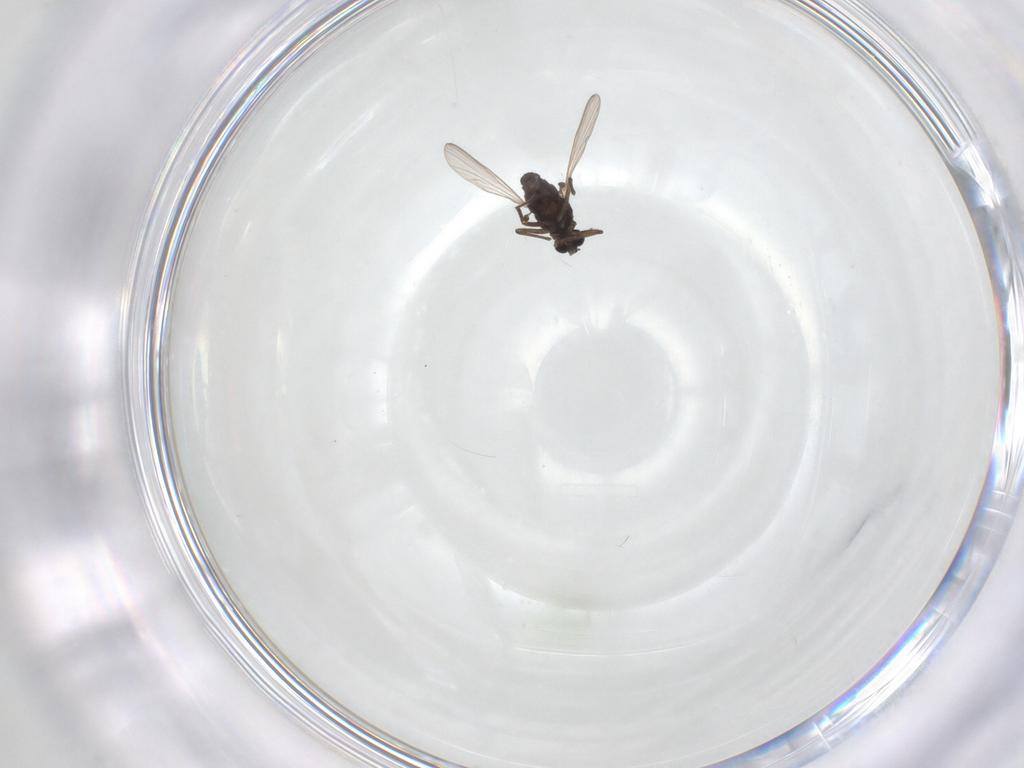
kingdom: Animalia
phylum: Arthropoda
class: Insecta
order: Diptera
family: Chironomidae
